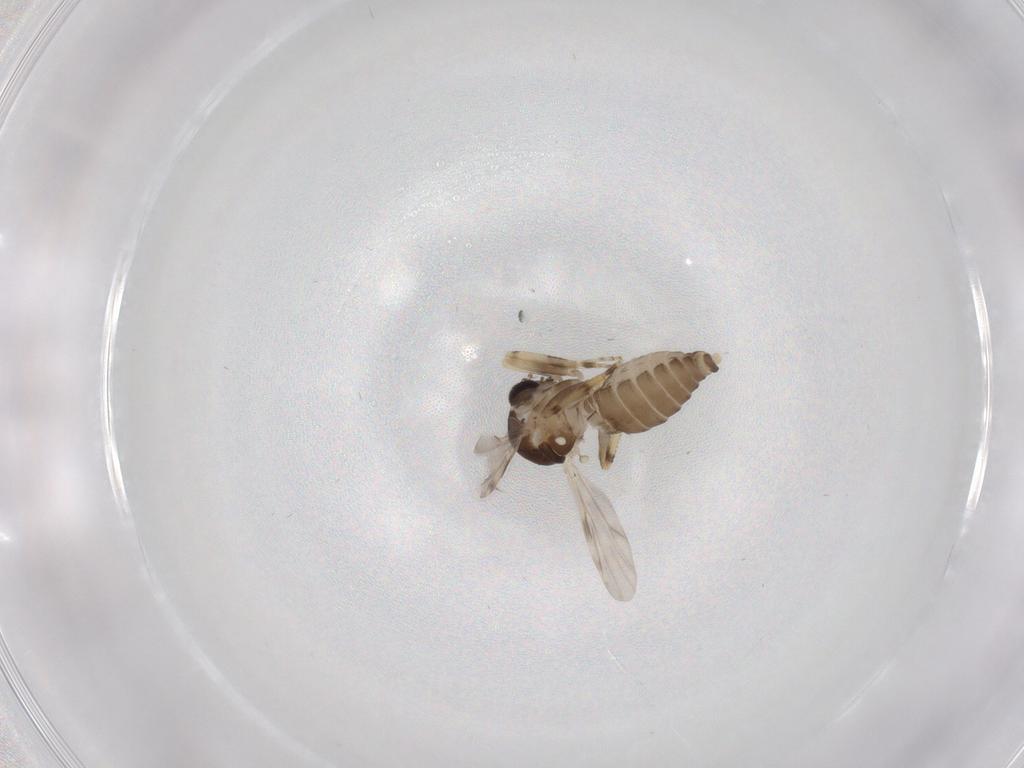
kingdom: Animalia
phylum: Arthropoda
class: Insecta
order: Diptera
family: Ceratopogonidae
